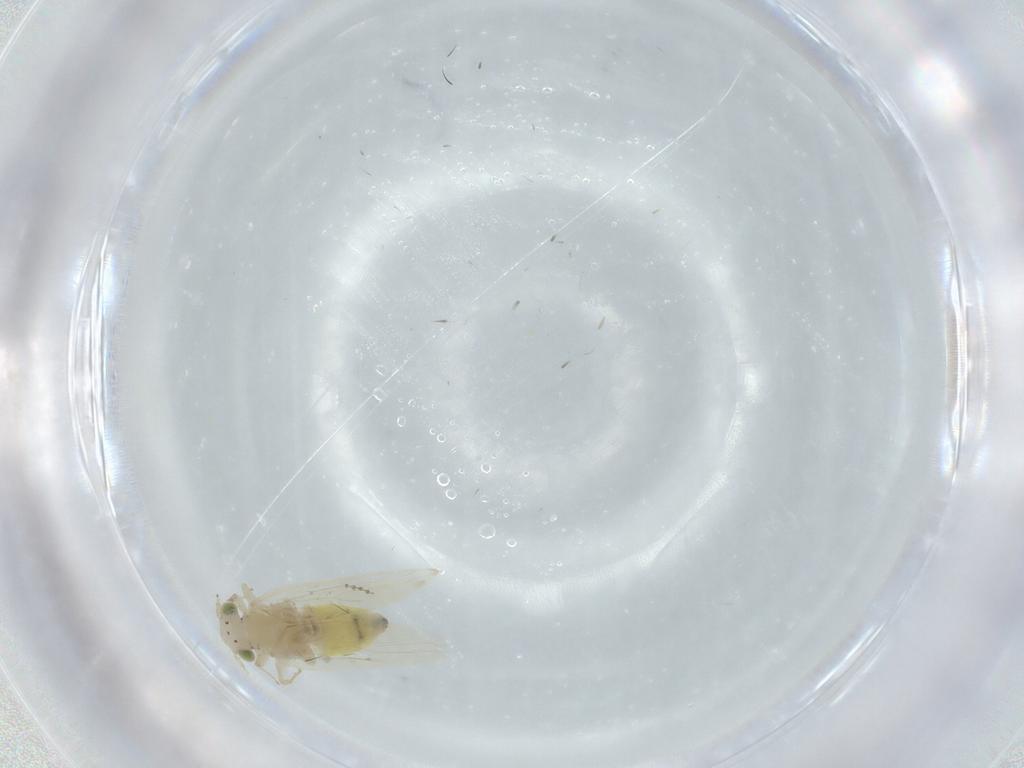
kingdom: Animalia
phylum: Arthropoda
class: Insecta
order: Psocodea
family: Lepidopsocidae
